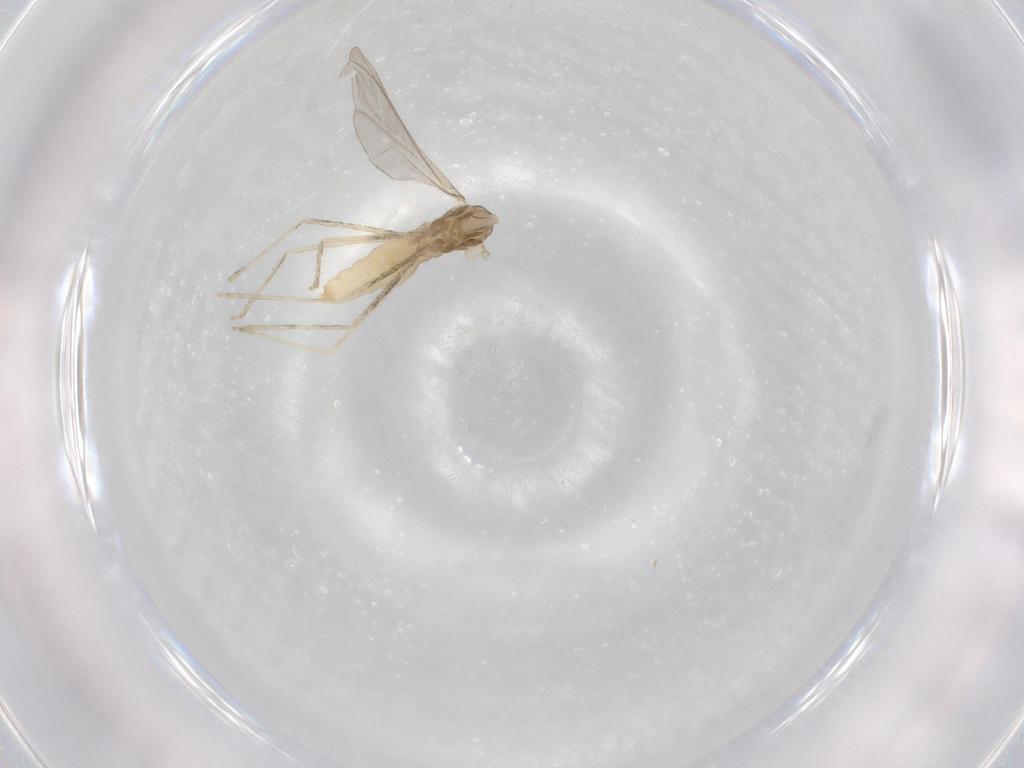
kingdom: Animalia
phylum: Arthropoda
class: Insecta
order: Diptera
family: Cecidomyiidae
